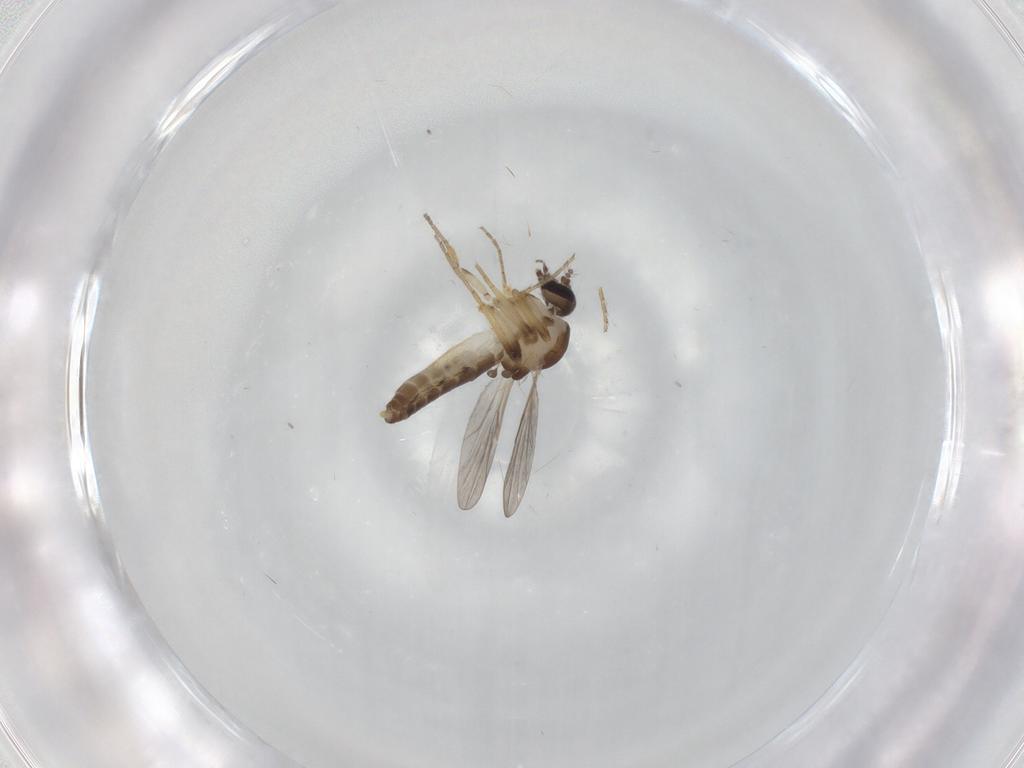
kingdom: Animalia
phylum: Arthropoda
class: Insecta
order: Diptera
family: Ceratopogonidae
